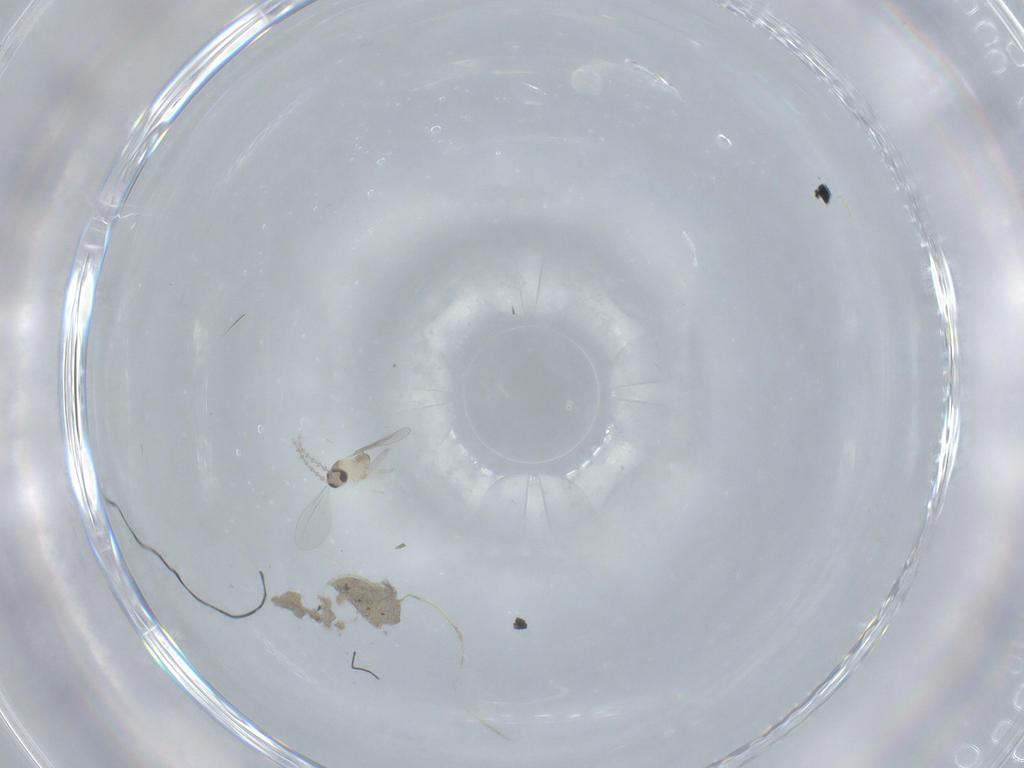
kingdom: Animalia
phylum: Arthropoda
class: Insecta
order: Diptera
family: Cecidomyiidae
